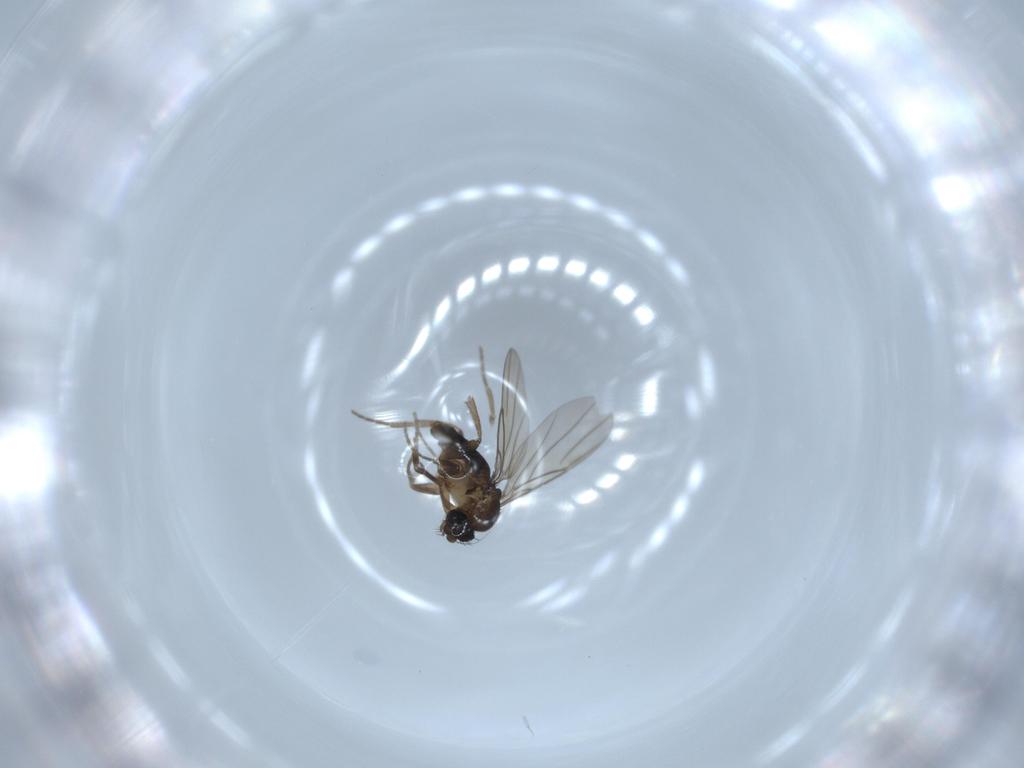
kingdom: Animalia
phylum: Arthropoda
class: Insecta
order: Diptera
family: Phoridae
